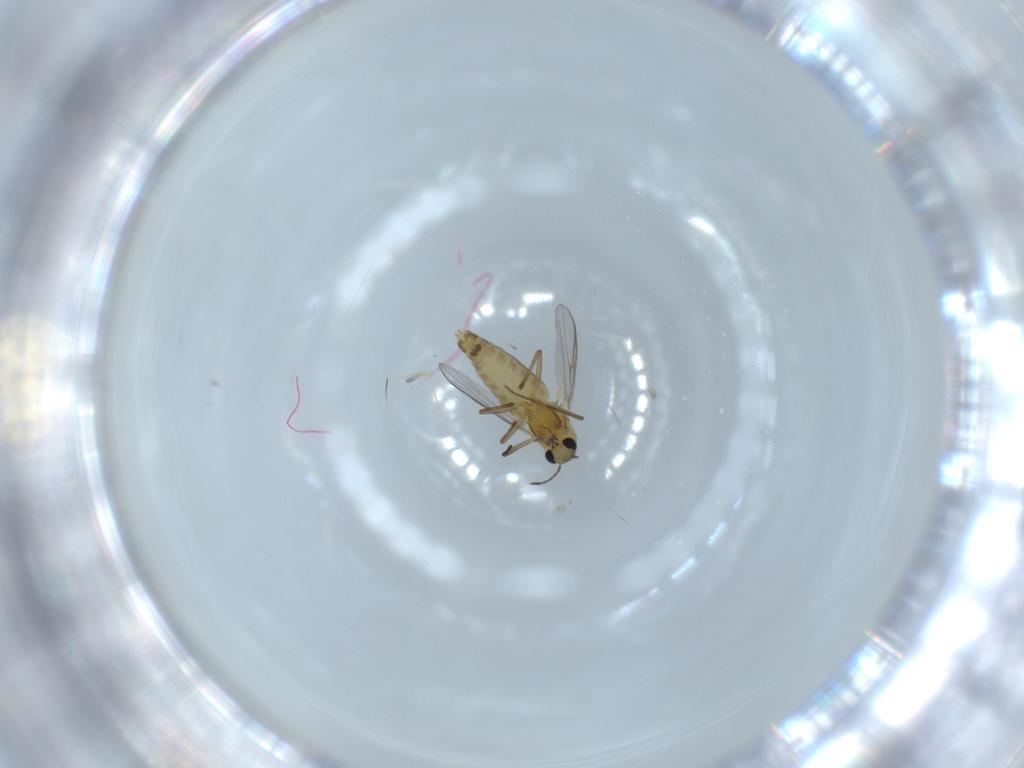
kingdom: Animalia
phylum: Arthropoda
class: Insecta
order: Diptera
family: Chironomidae
